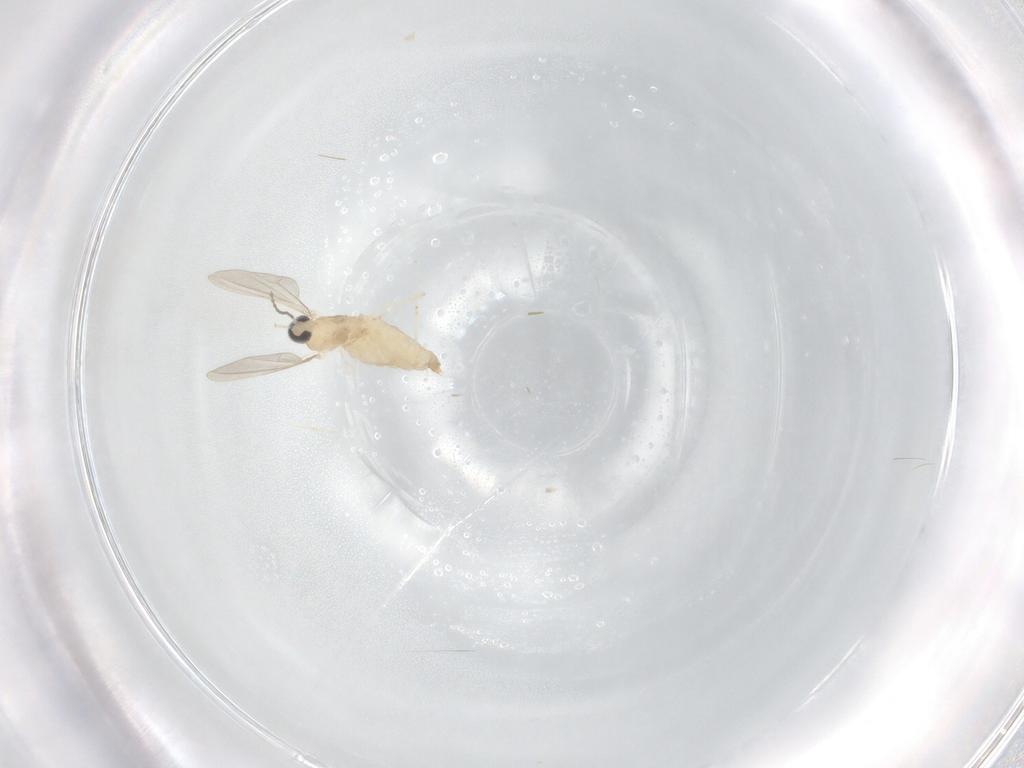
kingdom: Animalia
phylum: Arthropoda
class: Insecta
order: Diptera
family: Cecidomyiidae
